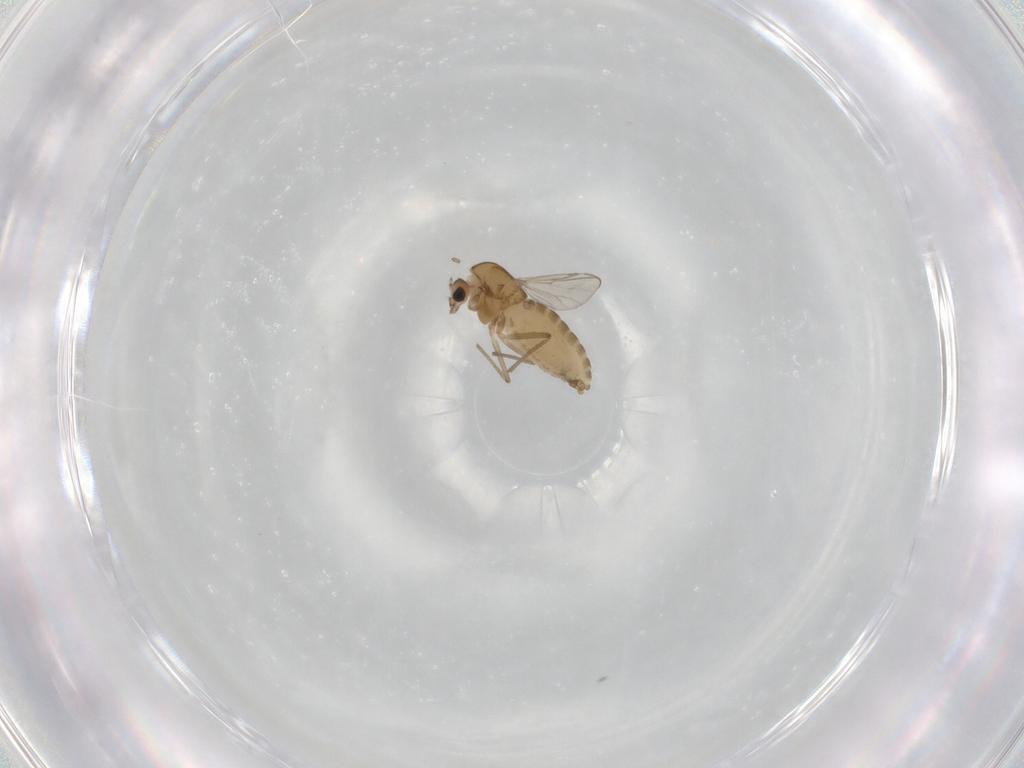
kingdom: Animalia
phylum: Arthropoda
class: Insecta
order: Diptera
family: Chironomidae
